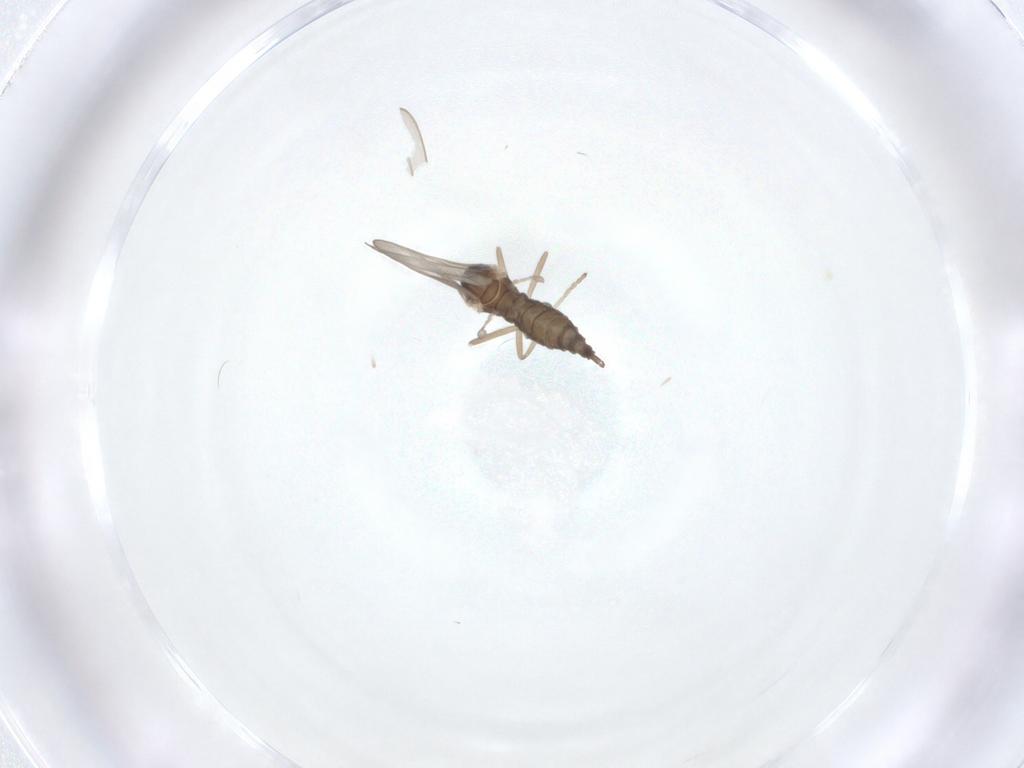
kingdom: Animalia
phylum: Arthropoda
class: Insecta
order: Diptera
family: Cecidomyiidae
